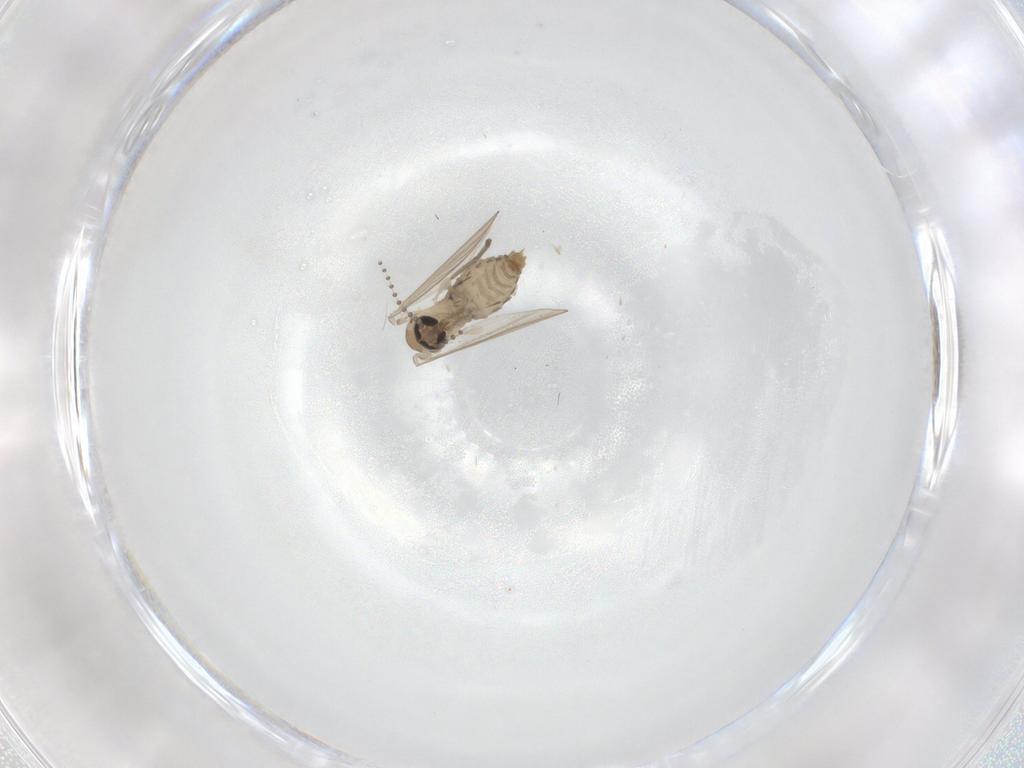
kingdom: Animalia
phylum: Arthropoda
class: Insecta
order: Diptera
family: Psychodidae
